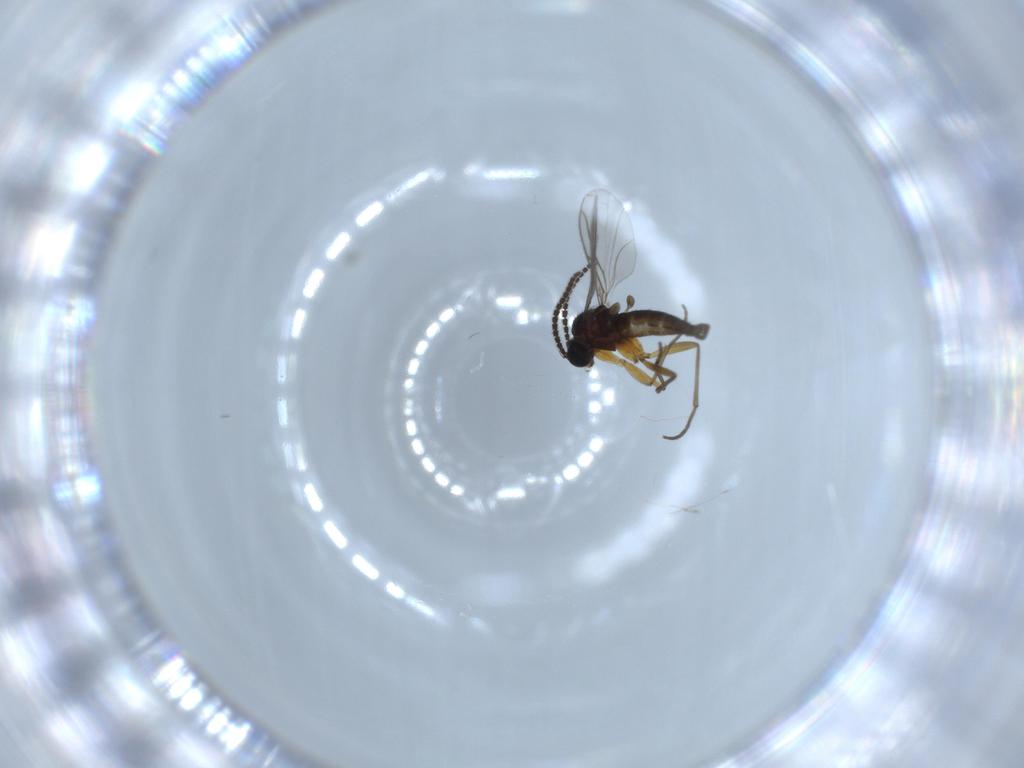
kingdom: Animalia
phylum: Arthropoda
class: Insecta
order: Diptera
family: Sciaridae
